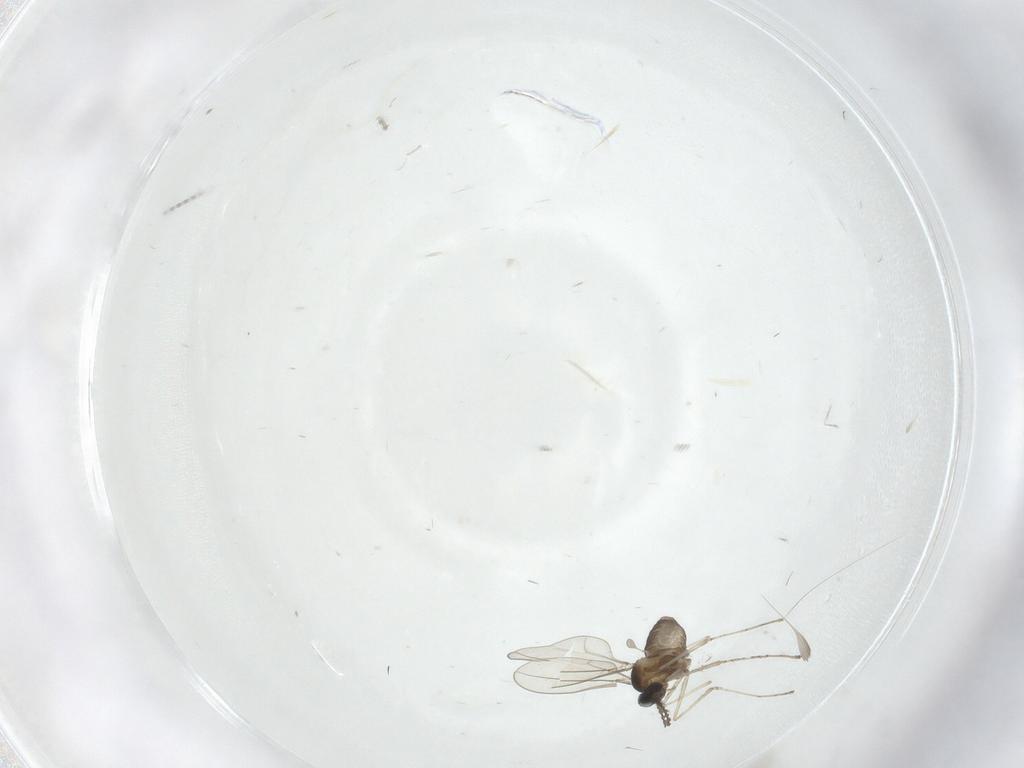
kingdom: Animalia
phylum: Arthropoda
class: Insecta
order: Diptera
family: Cecidomyiidae
